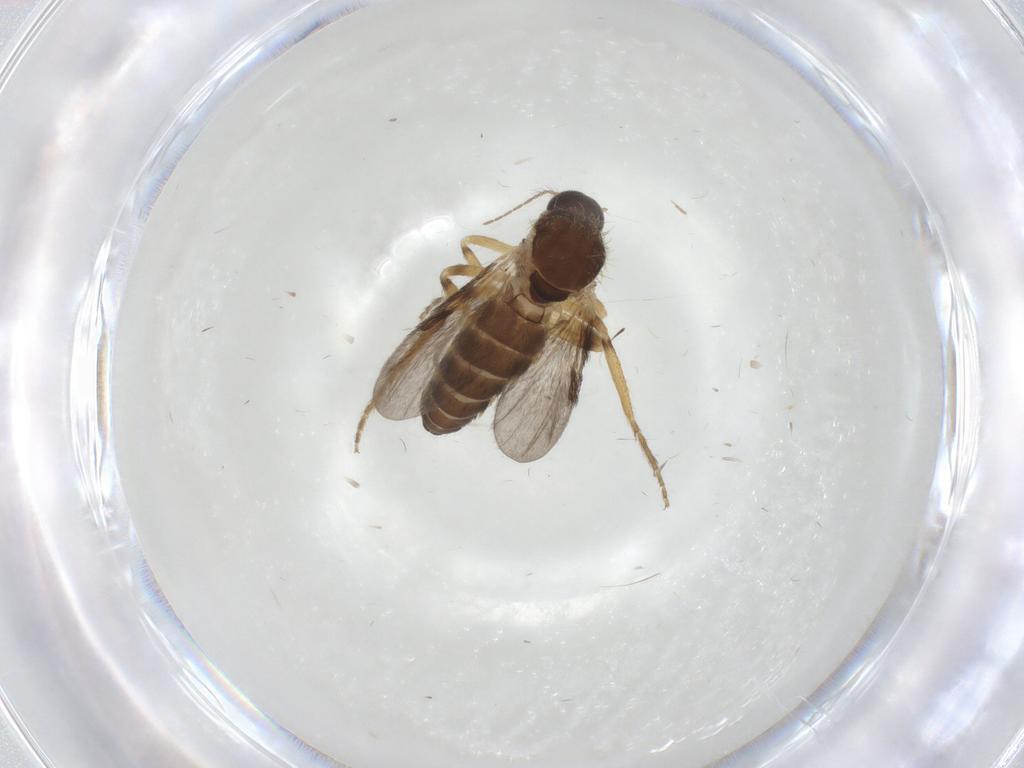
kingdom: Animalia
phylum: Arthropoda
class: Insecta
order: Diptera
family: Ceratopogonidae
